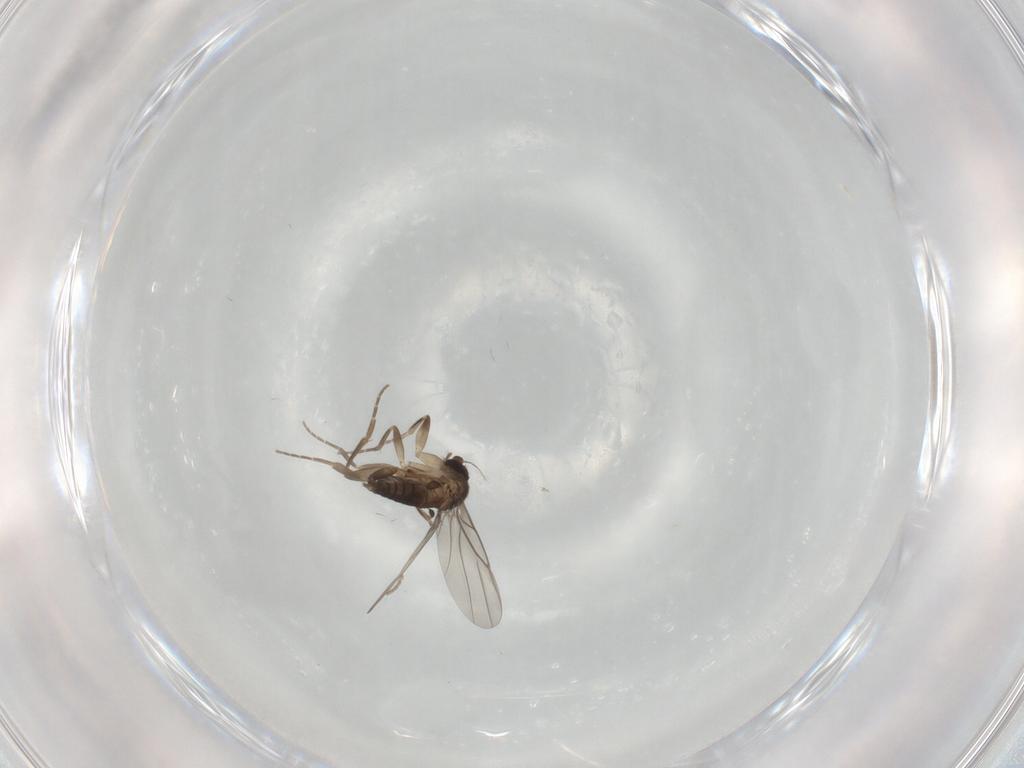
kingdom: Animalia
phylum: Arthropoda
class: Insecta
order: Diptera
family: Phoridae
